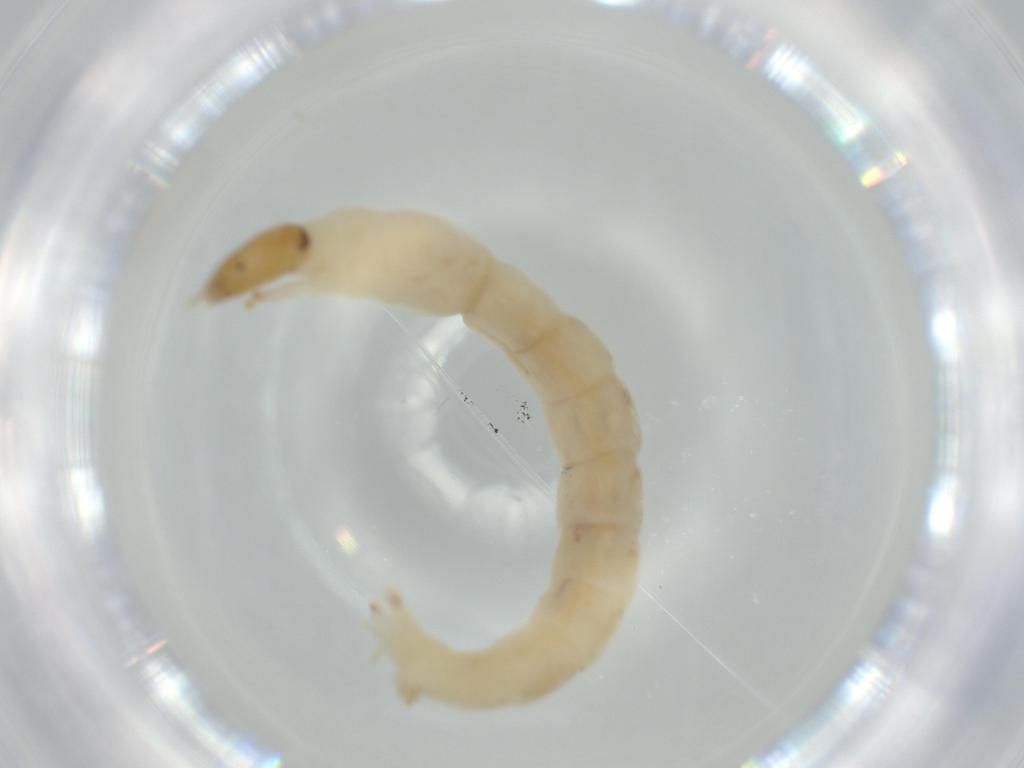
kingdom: Animalia
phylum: Arthropoda
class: Insecta
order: Diptera
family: Chironomidae
